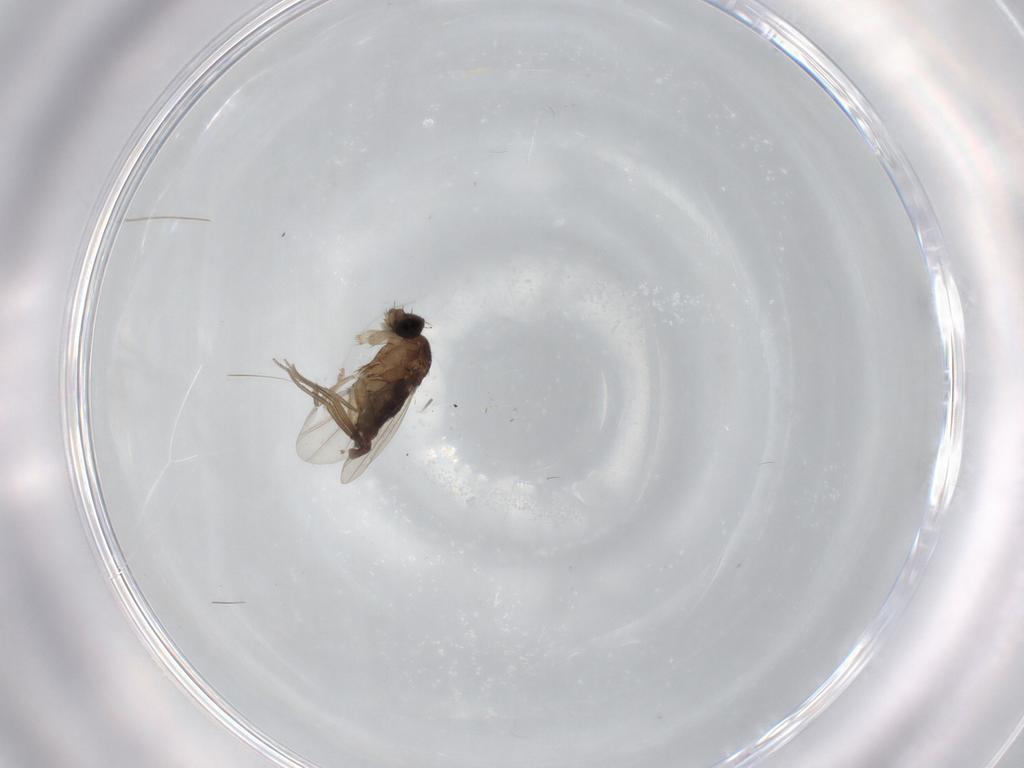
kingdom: Animalia
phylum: Arthropoda
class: Insecta
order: Diptera
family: Phoridae
